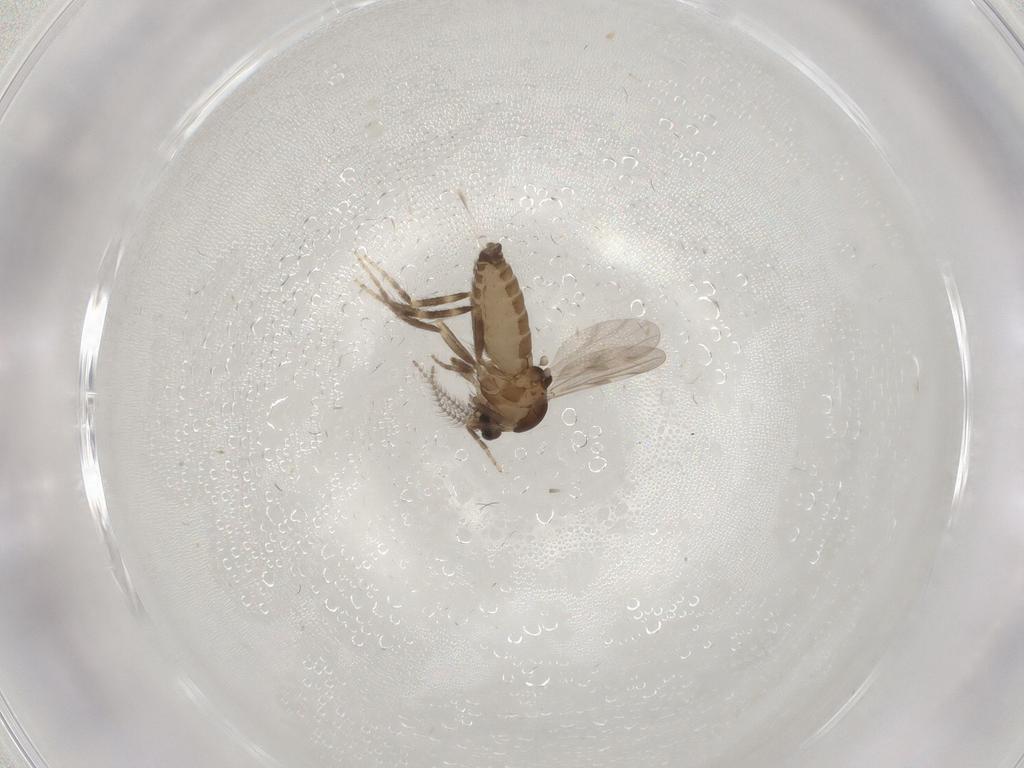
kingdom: Animalia
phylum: Arthropoda
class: Insecta
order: Diptera
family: Ceratopogonidae
